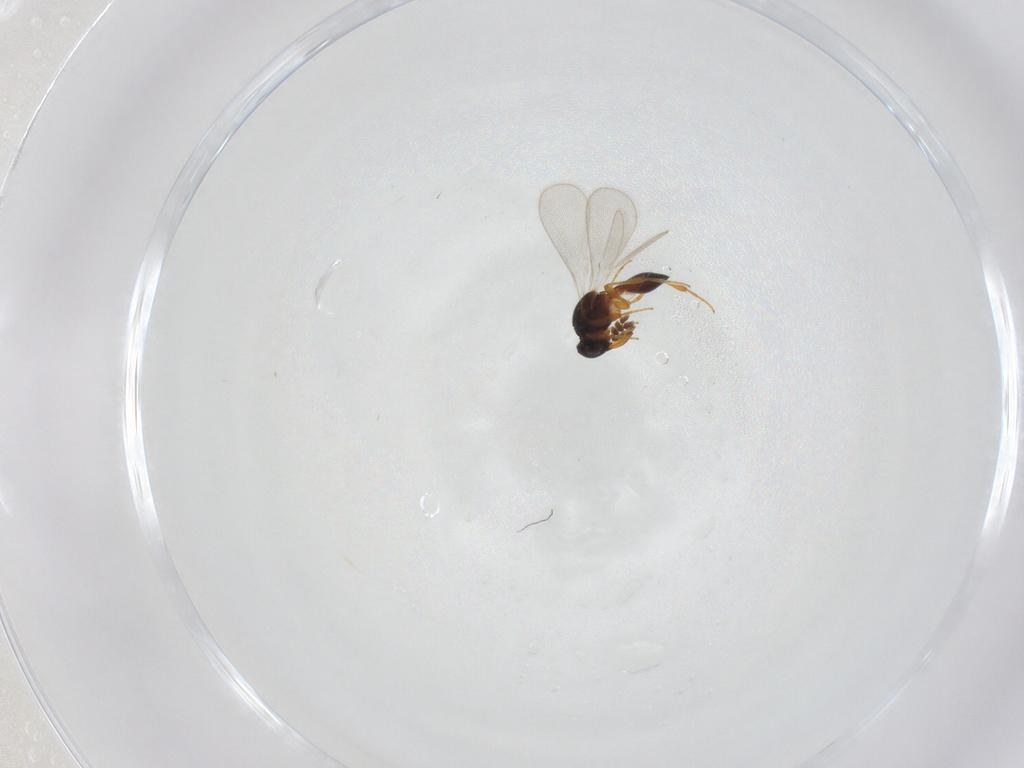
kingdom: Animalia
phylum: Arthropoda
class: Insecta
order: Hymenoptera
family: Platygastridae
